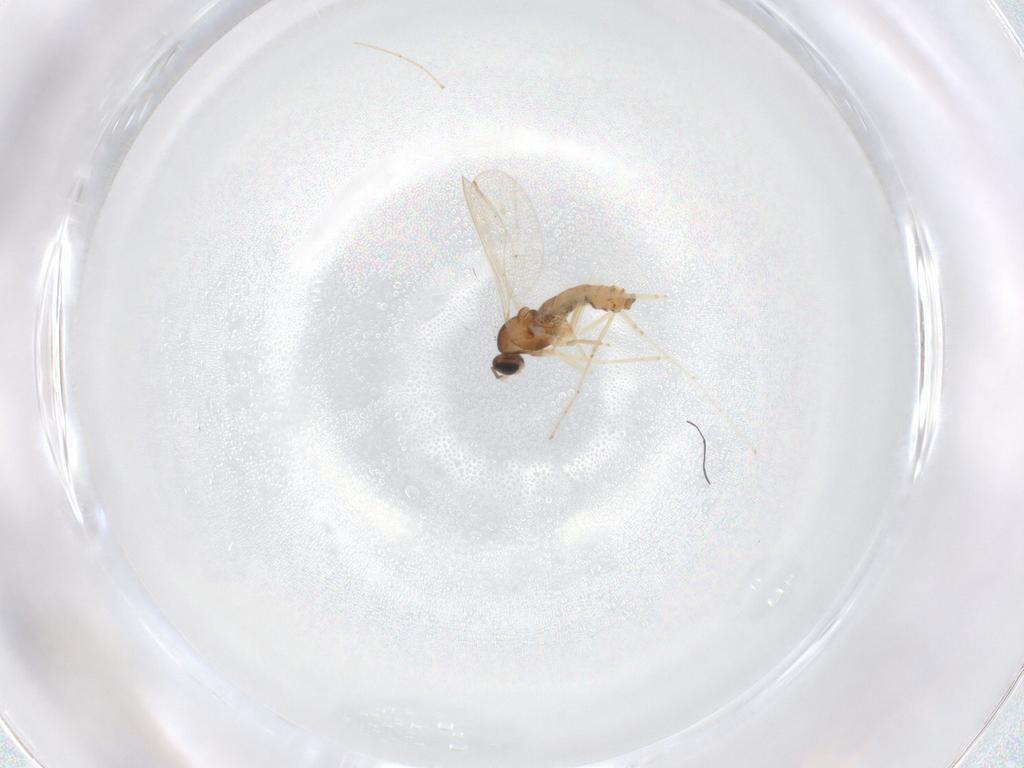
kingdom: Animalia
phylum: Arthropoda
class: Insecta
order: Diptera
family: Cecidomyiidae
